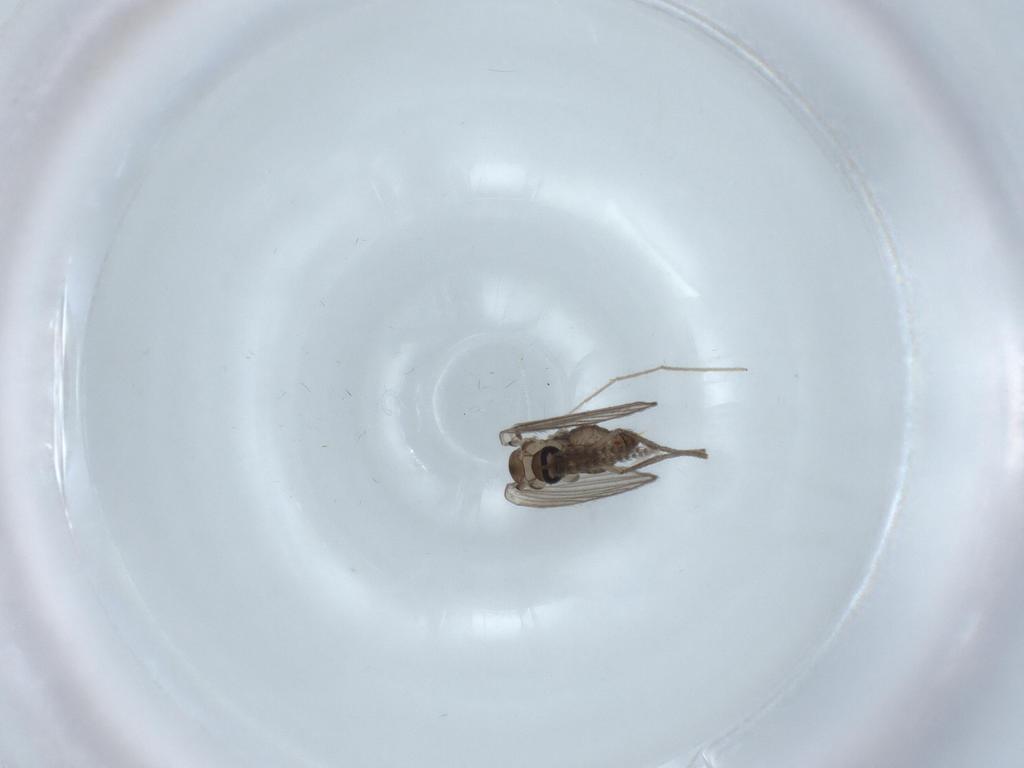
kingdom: Animalia
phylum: Arthropoda
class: Insecta
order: Diptera
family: Psychodidae
